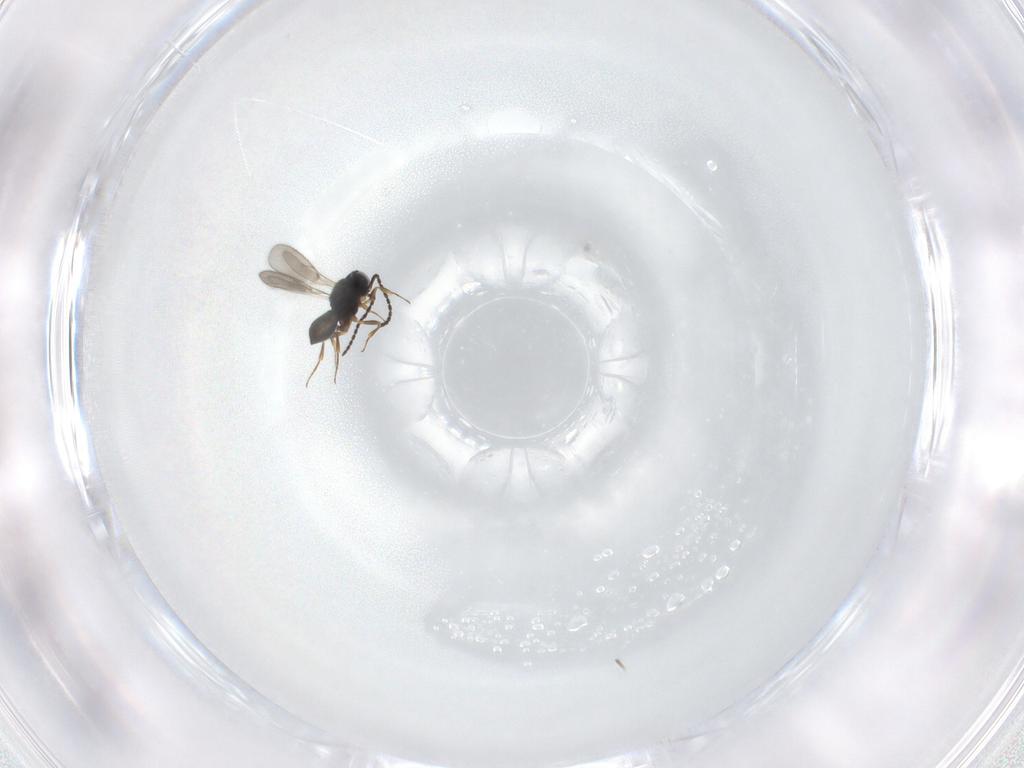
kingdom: Animalia
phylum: Arthropoda
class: Insecta
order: Hymenoptera
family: Scelionidae
